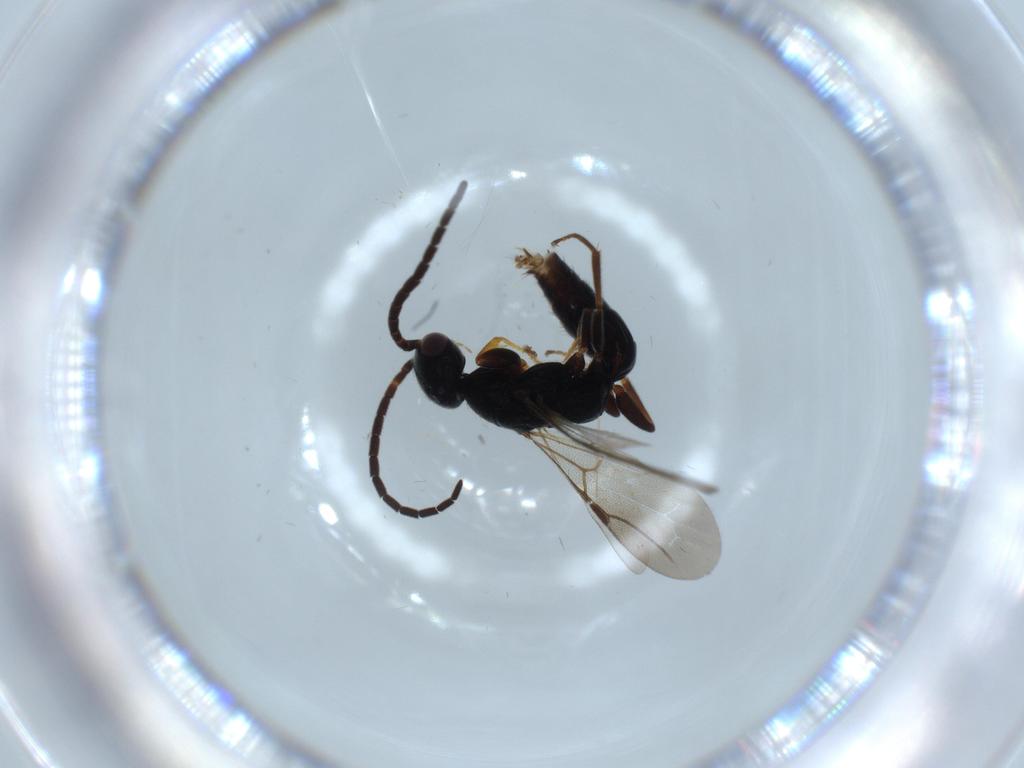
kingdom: Animalia
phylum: Arthropoda
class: Insecta
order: Hymenoptera
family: Bethylidae
